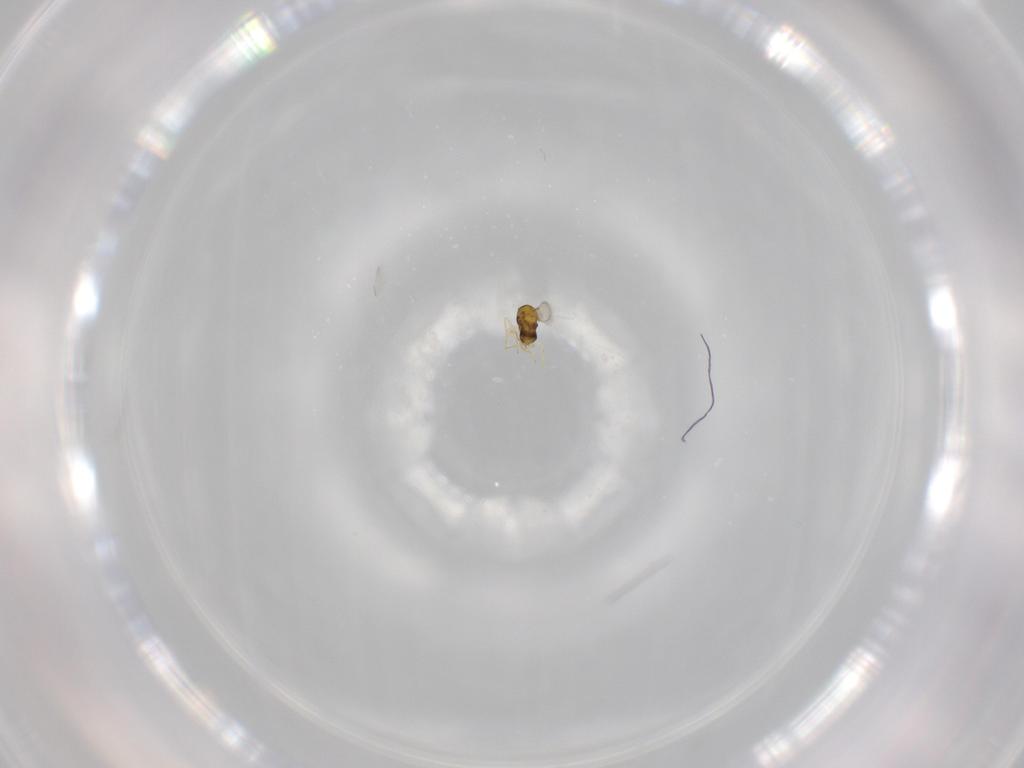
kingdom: Animalia
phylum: Arthropoda
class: Insecta
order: Hymenoptera
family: Aphelinidae
